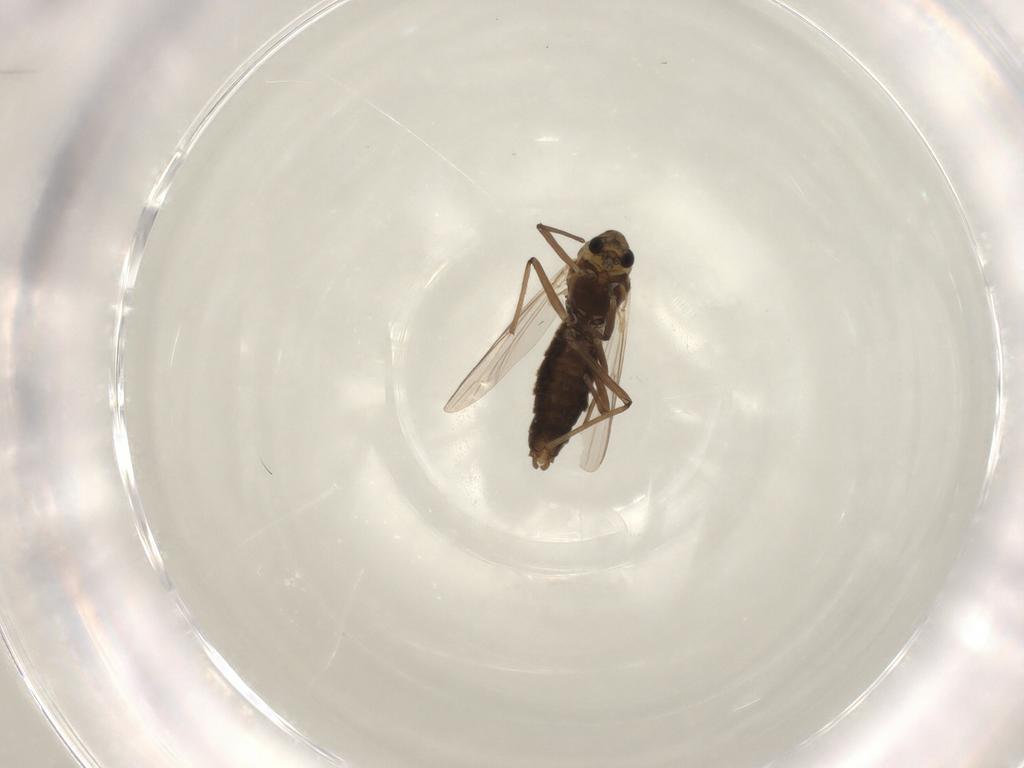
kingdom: Animalia
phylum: Arthropoda
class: Insecta
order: Diptera
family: Chironomidae
